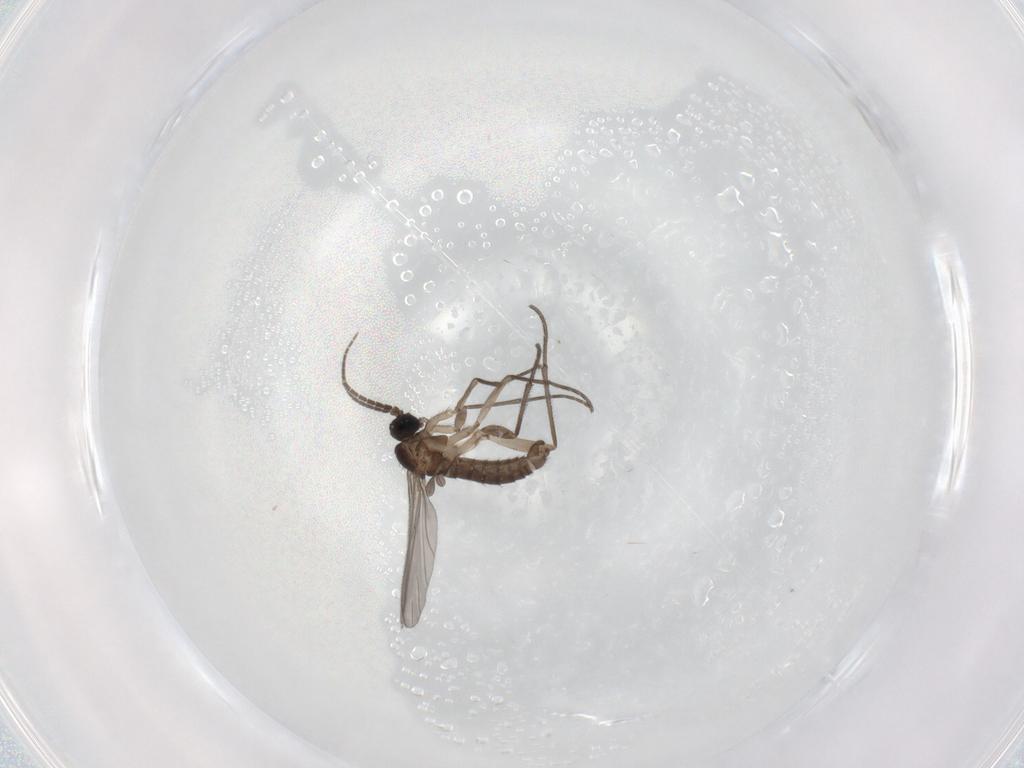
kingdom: Animalia
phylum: Arthropoda
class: Insecta
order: Diptera
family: Sciaridae
